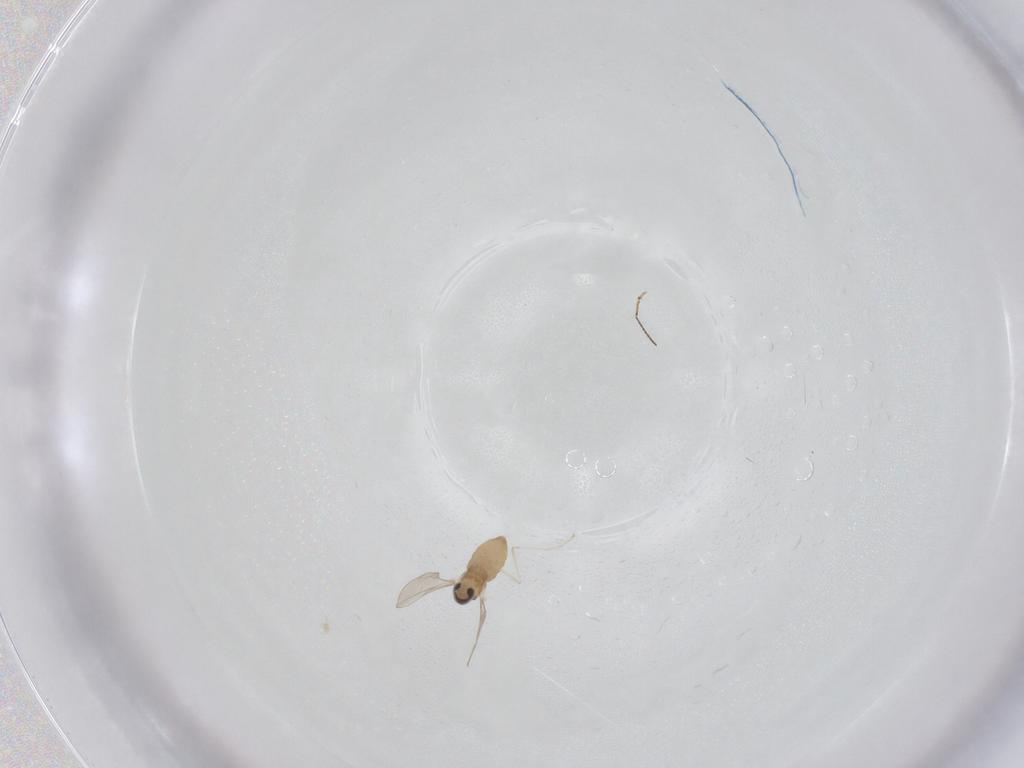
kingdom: Animalia
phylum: Arthropoda
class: Insecta
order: Diptera
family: Cecidomyiidae
